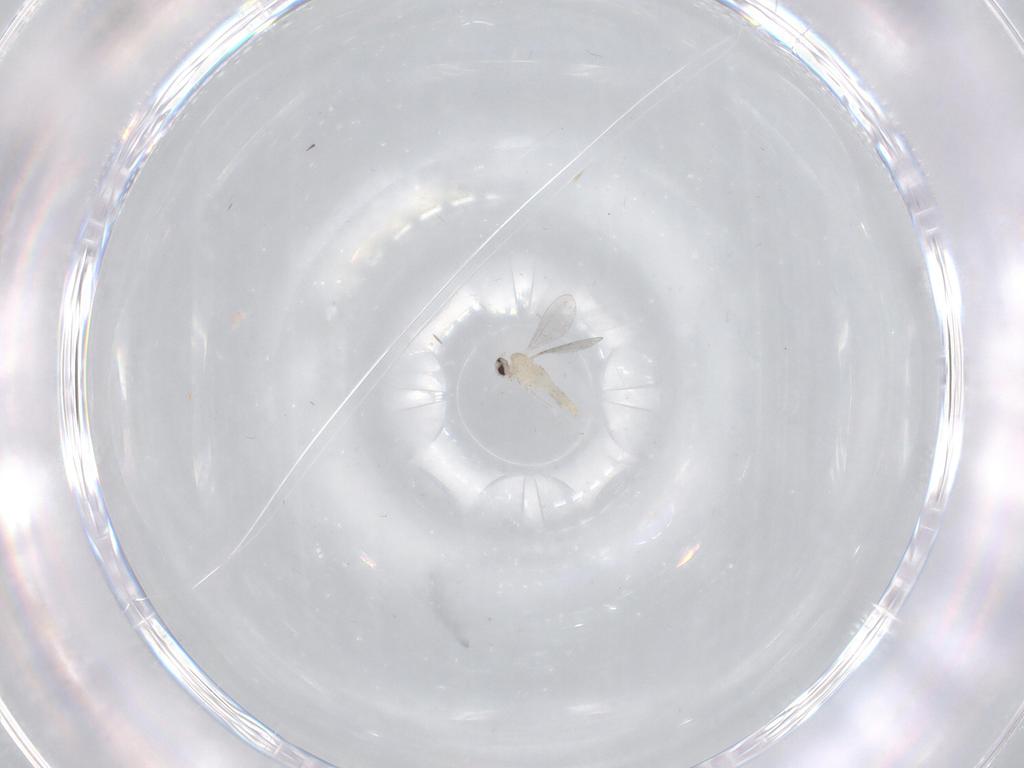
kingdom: Animalia
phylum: Arthropoda
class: Insecta
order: Diptera
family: Cecidomyiidae
